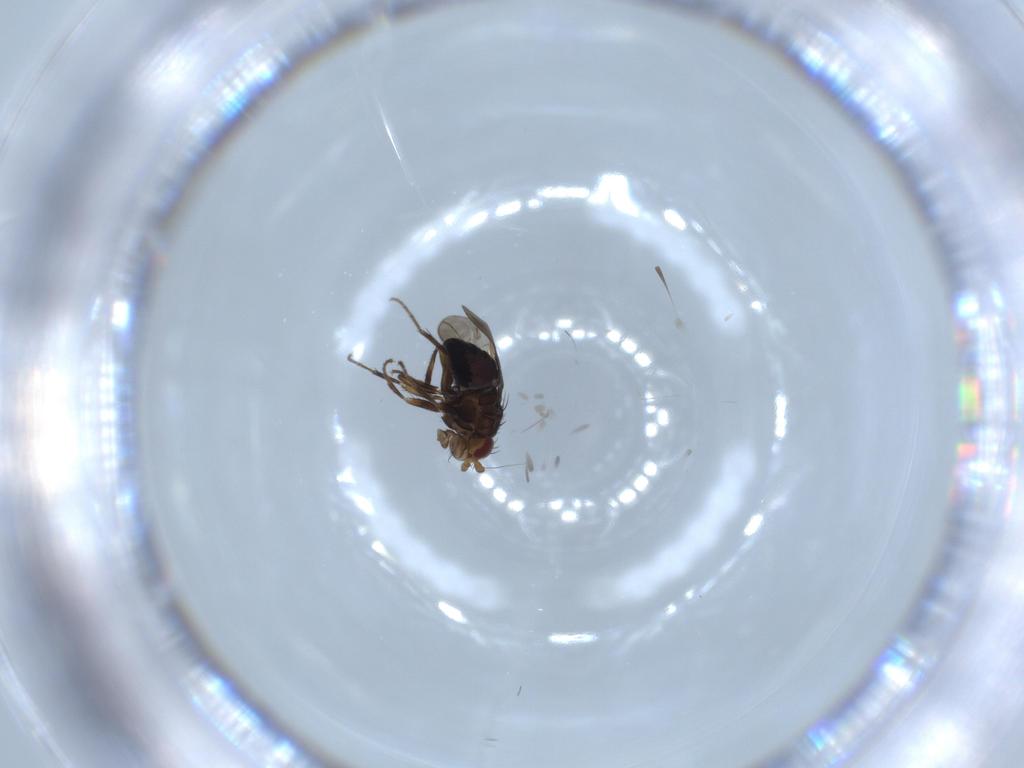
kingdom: Animalia
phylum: Arthropoda
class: Insecta
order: Diptera
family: Sphaeroceridae
